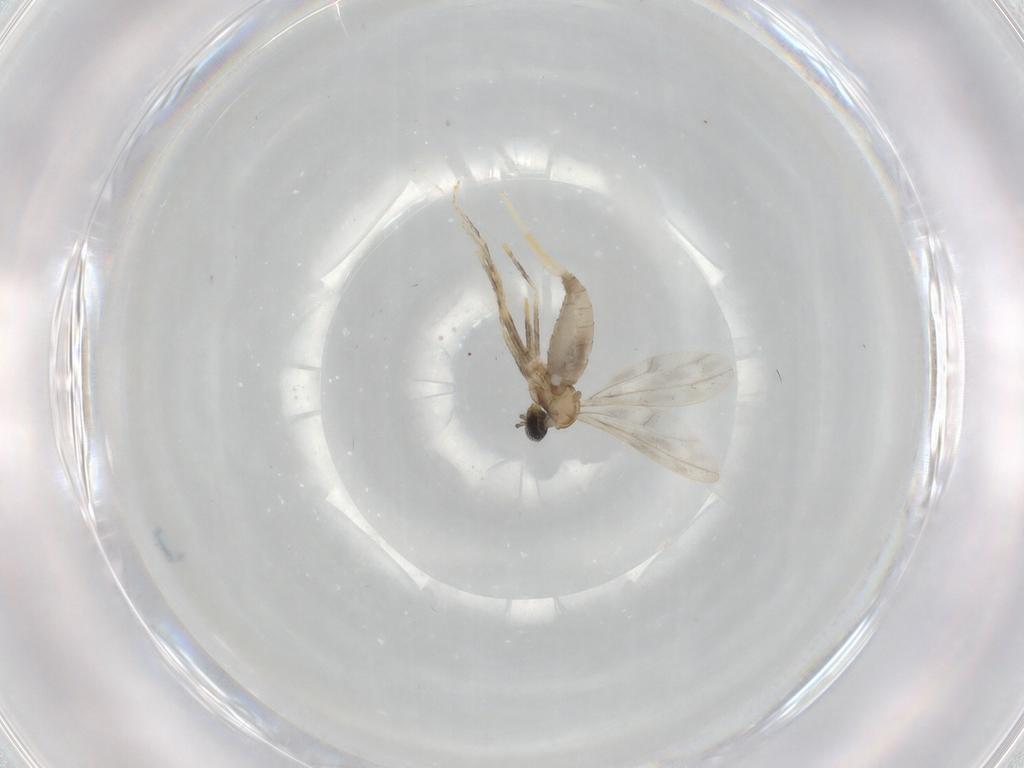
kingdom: Animalia
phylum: Arthropoda
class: Insecta
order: Diptera
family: Cecidomyiidae
